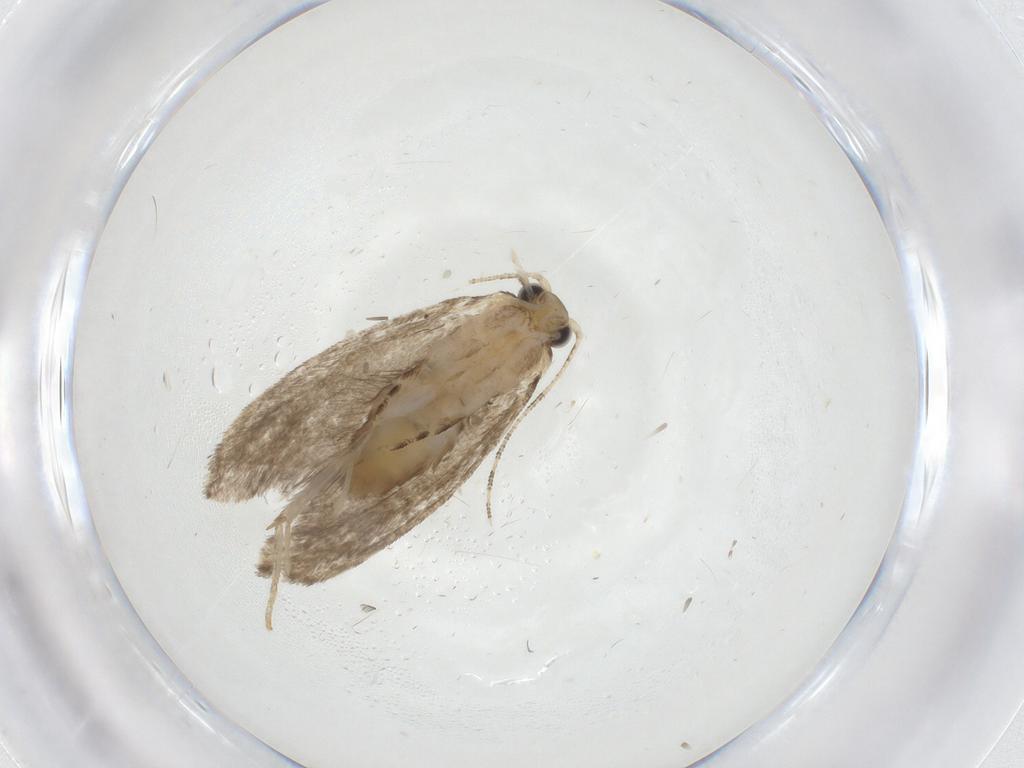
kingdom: Animalia
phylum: Arthropoda
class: Insecta
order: Lepidoptera
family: Tineidae
